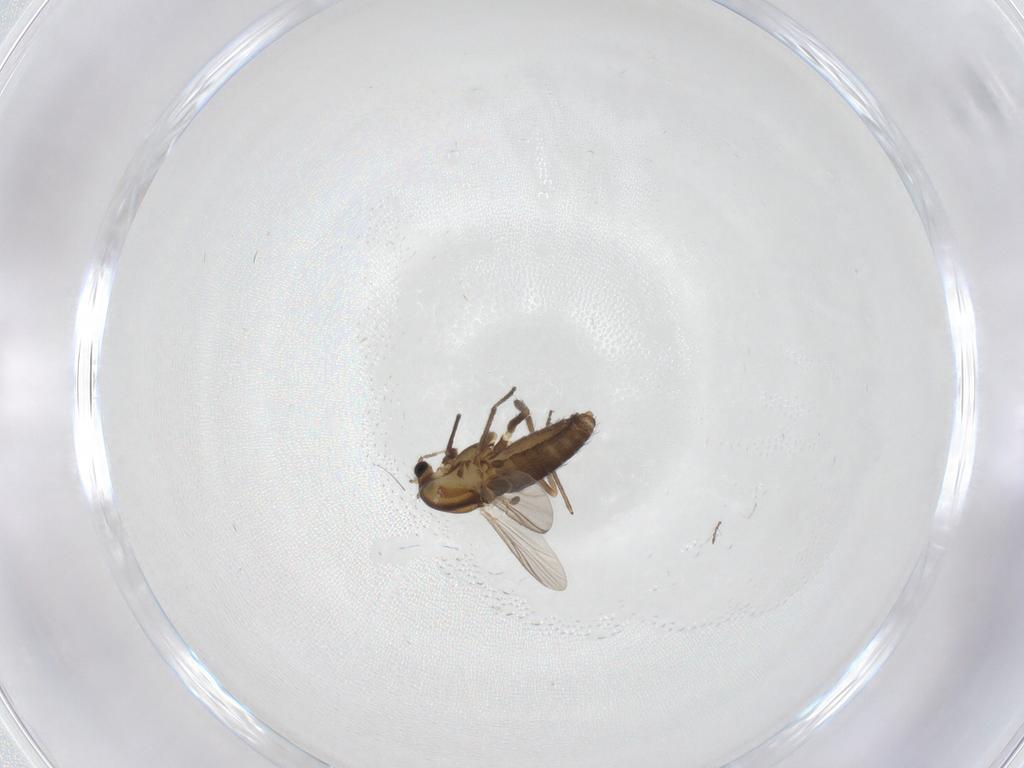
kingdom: Animalia
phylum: Arthropoda
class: Insecta
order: Diptera
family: Chironomidae
